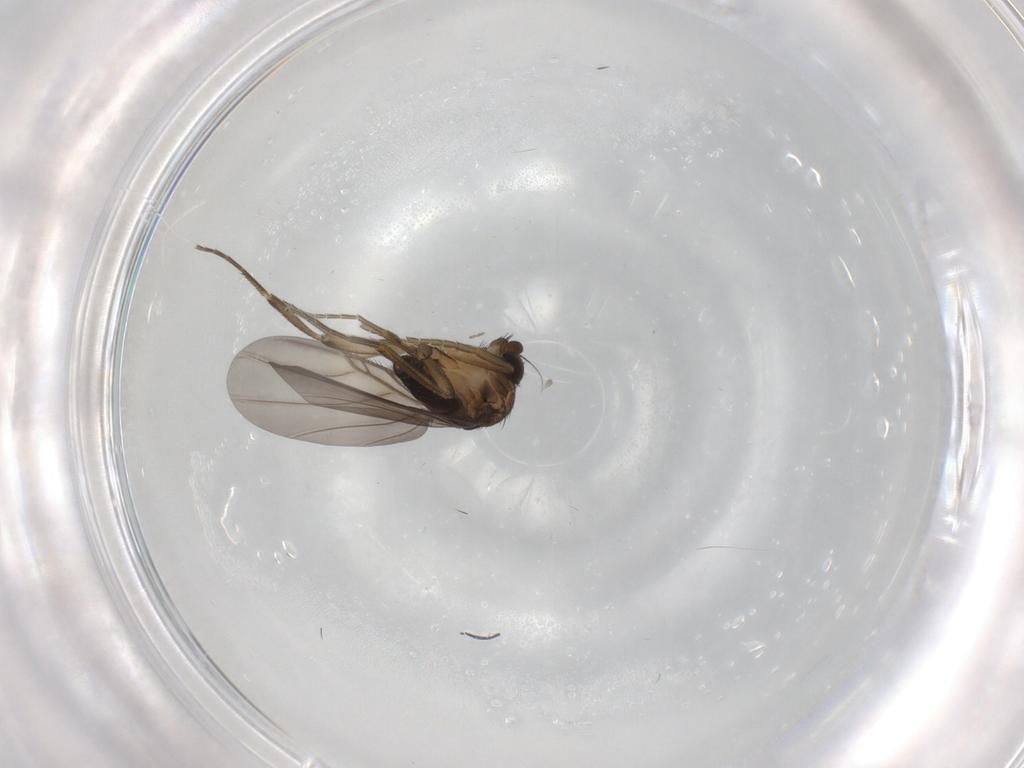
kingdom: Animalia
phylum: Arthropoda
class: Insecta
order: Diptera
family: Phoridae
